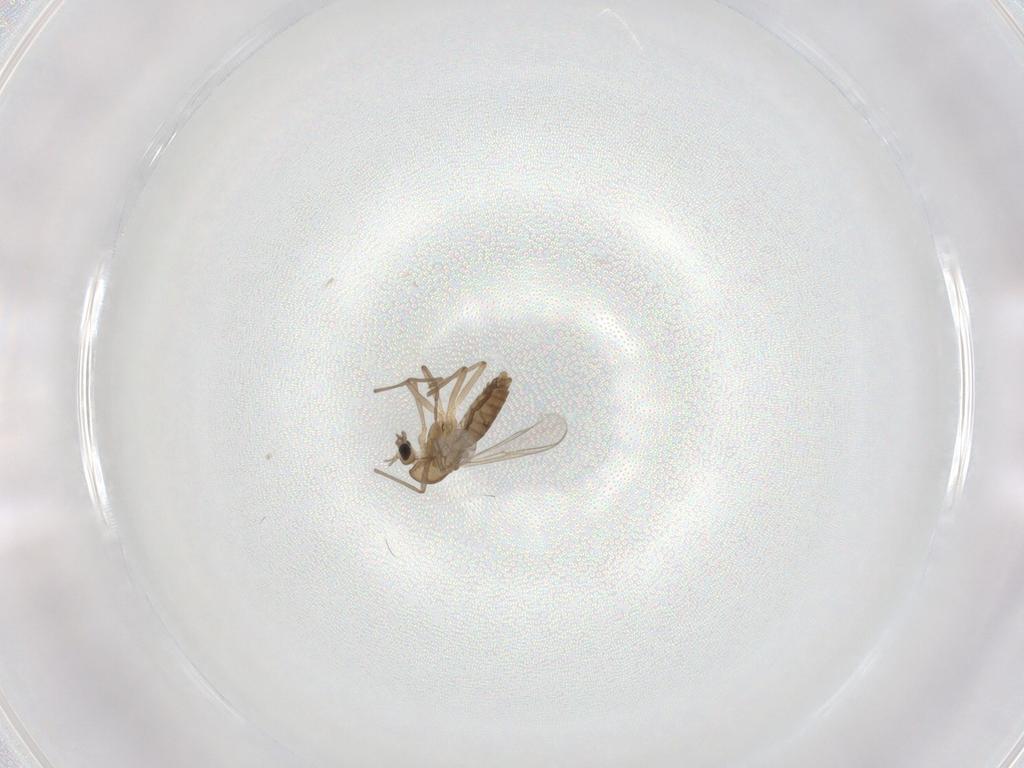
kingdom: Animalia
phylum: Arthropoda
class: Insecta
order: Diptera
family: Chironomidae
